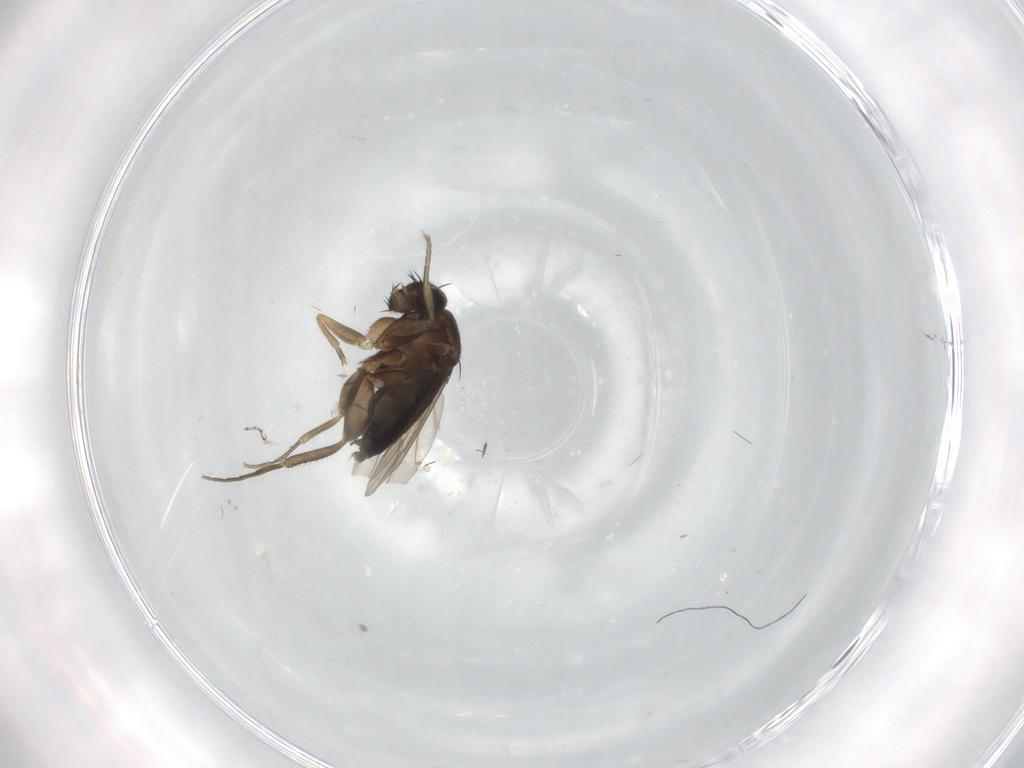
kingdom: Animalia
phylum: Arthropoda
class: Insecta
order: Diptera
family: Phoridae
